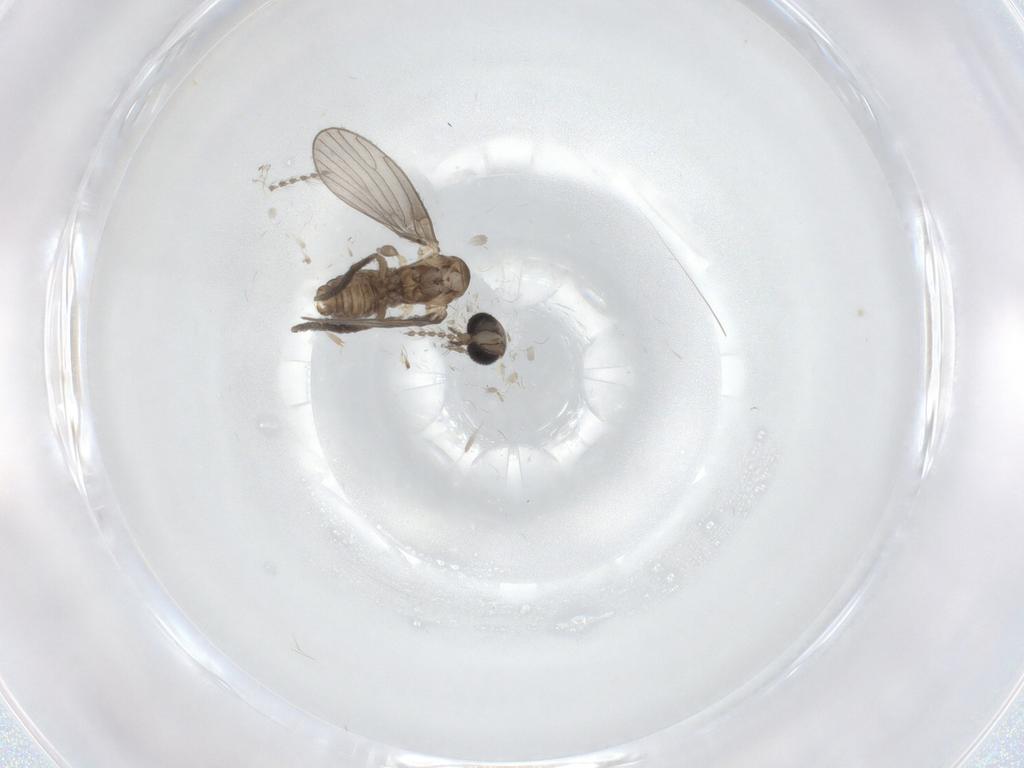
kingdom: Animalia
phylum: Arthropoda
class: Insecta
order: Diptera
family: Psychodidae
